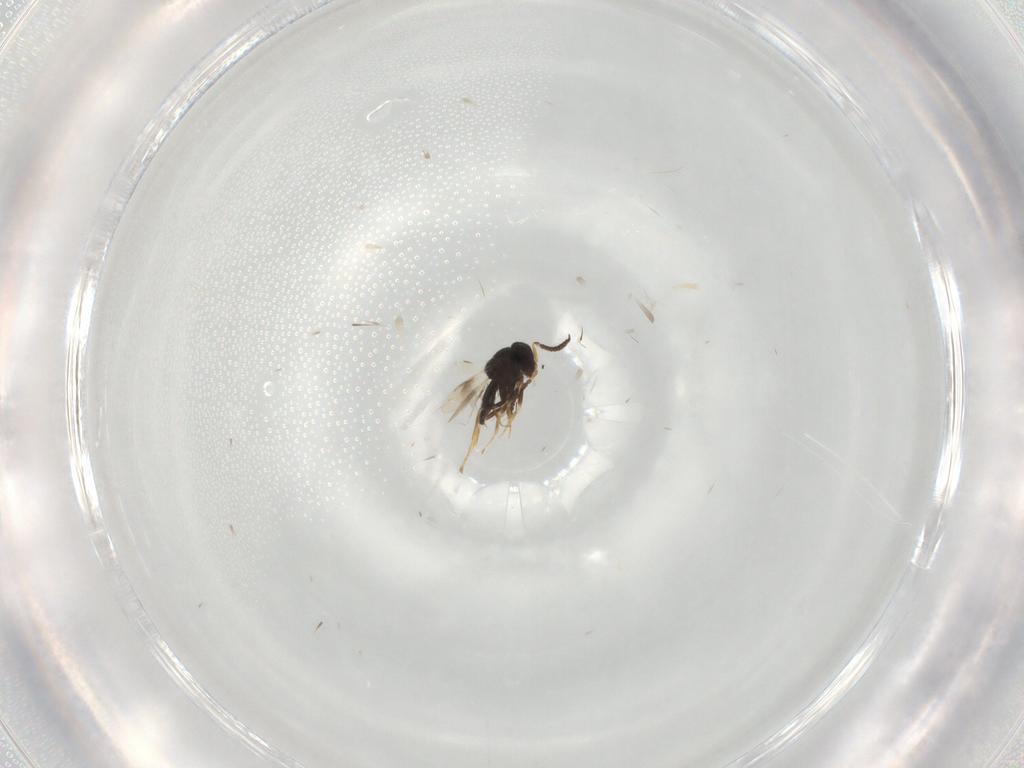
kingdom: Animalia
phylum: Arthropoda
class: Insecta
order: Hymenoptera
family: Scelionidae
